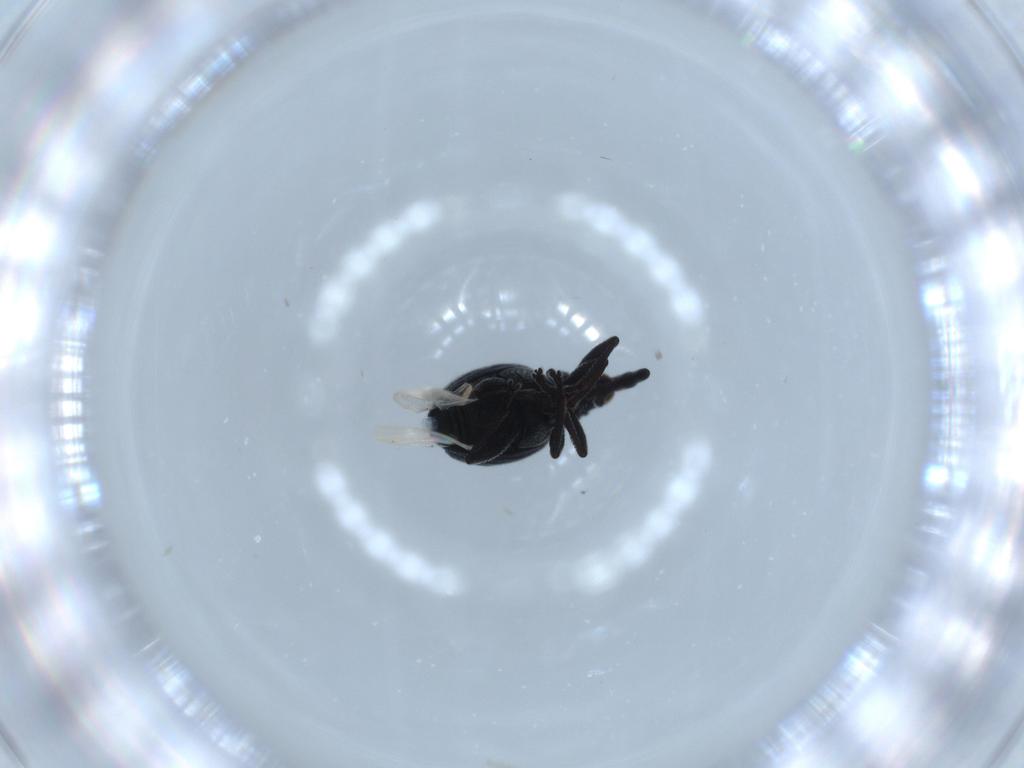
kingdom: Animalia
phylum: Arthropoda
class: Insecta
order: Coleoptera
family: Brentidae
